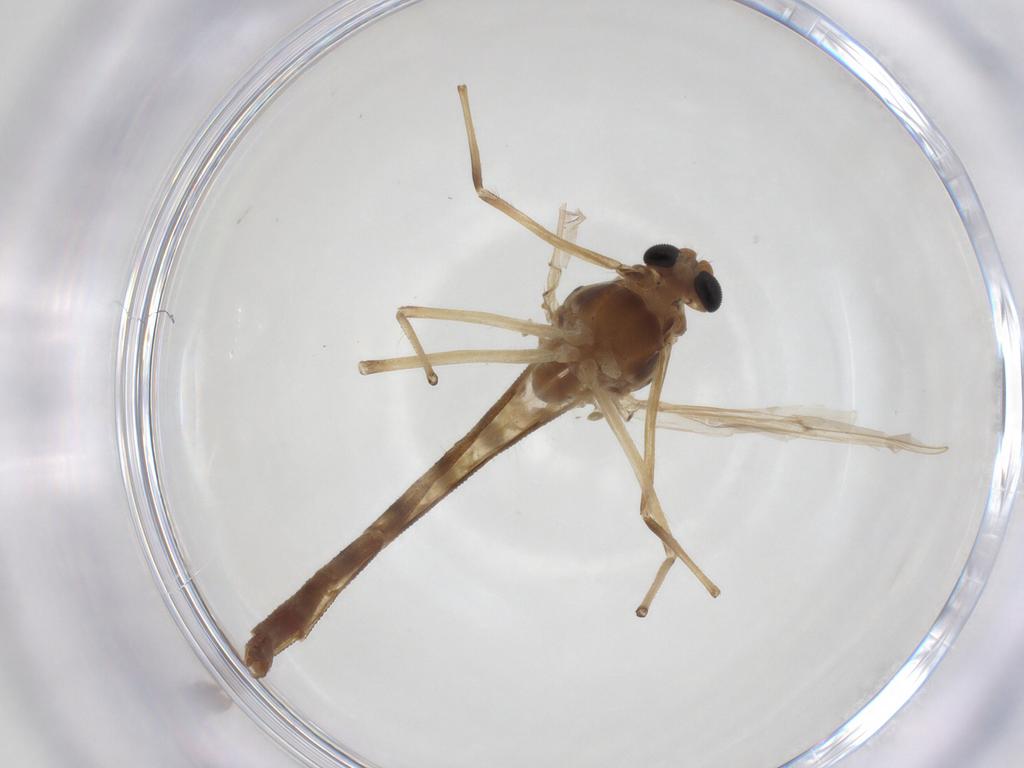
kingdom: Animalia
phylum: Arthropoda
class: Insecta
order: Diptera
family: Chironomidae
